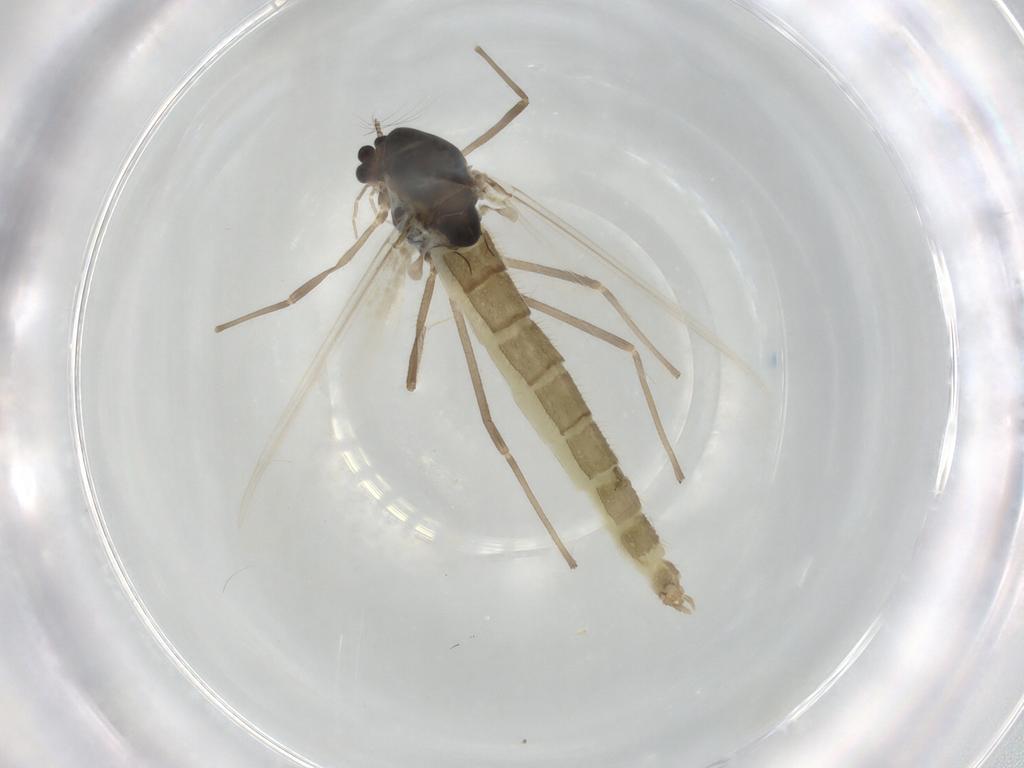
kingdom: Animalia
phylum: Arthropoda
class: Insecta
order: Diptera
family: Chironomidae
